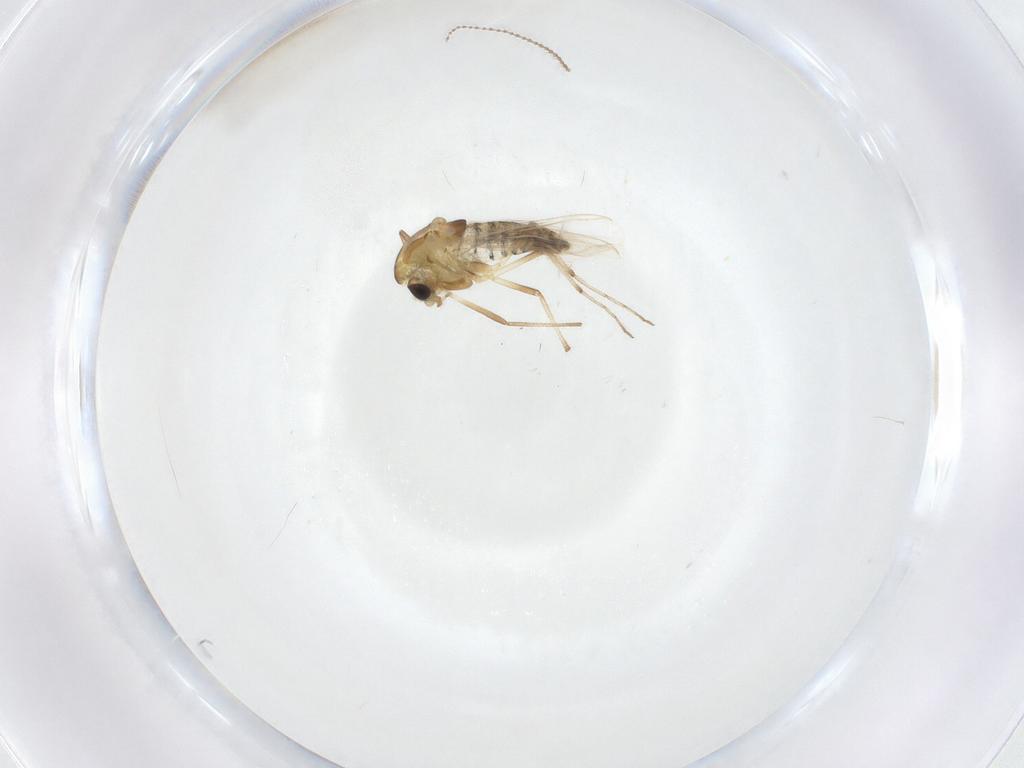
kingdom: Animalia
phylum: Arthropoda
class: Insecta
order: Diptera
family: Chironomidae
